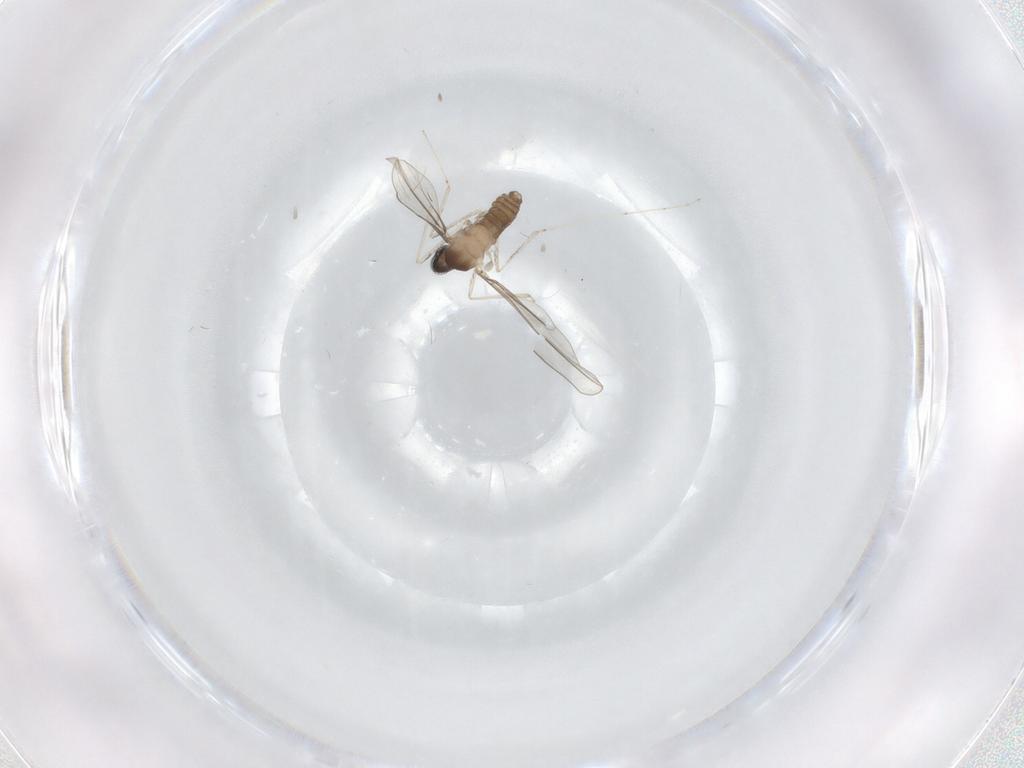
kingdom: Animalia
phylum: Arthropoda
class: Insecta
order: Diptera
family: Cecidomyiidae
